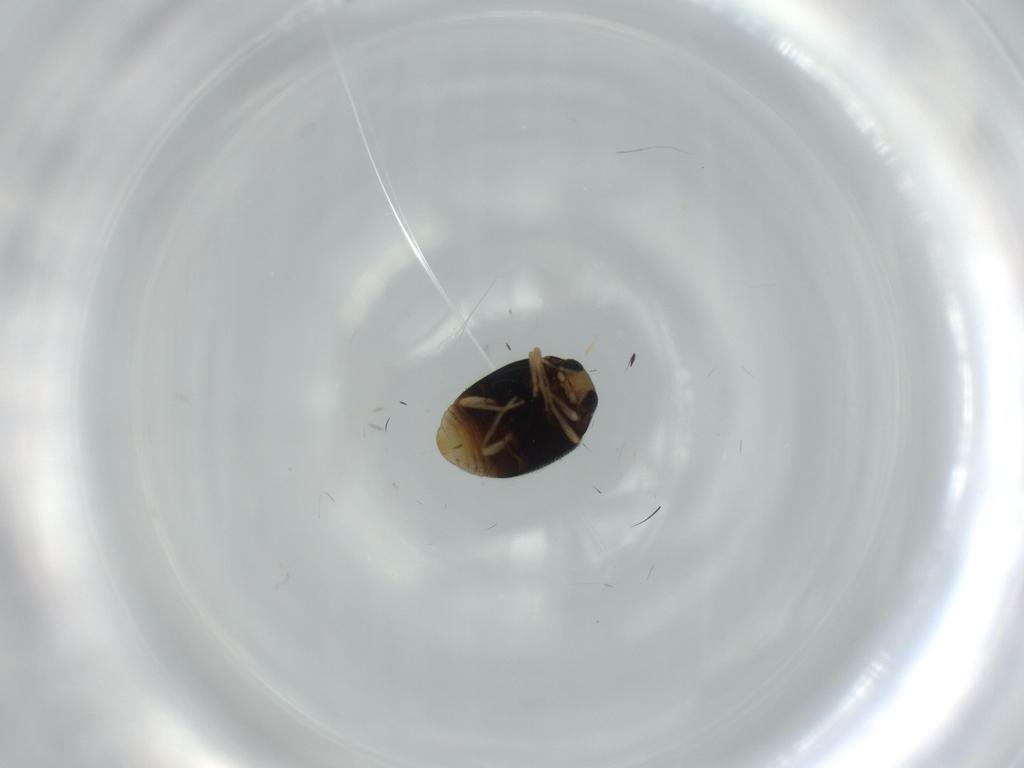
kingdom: Animalia
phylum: Arthropoda
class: Insecta
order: Coleoptera
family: Coccinellidae
